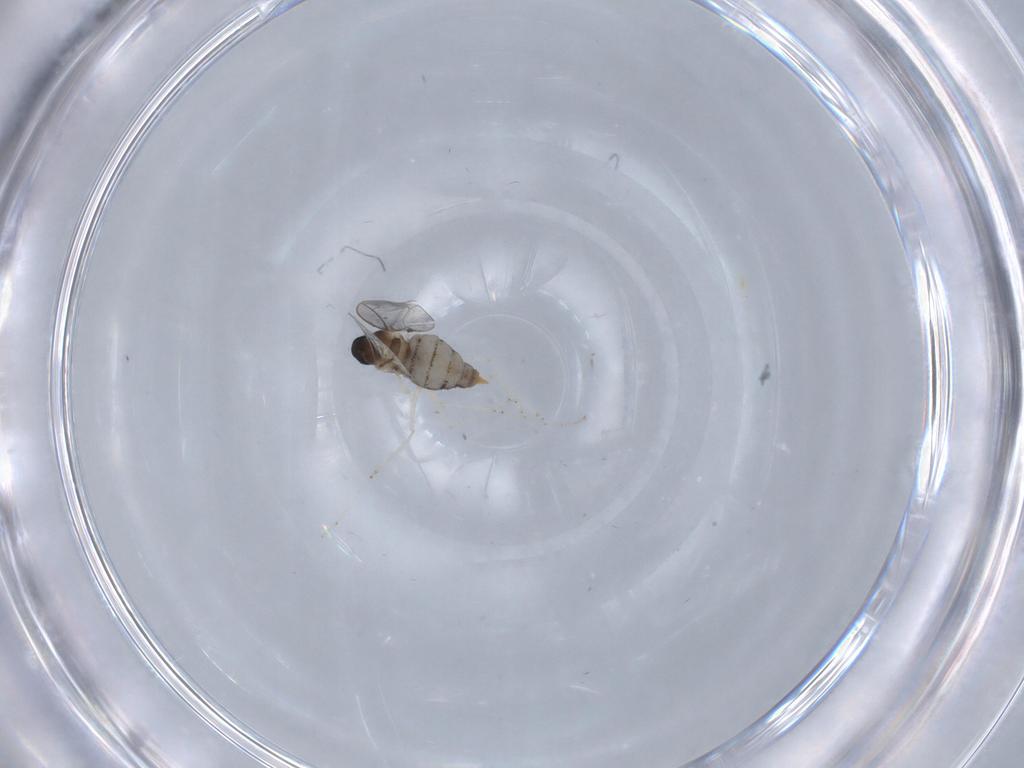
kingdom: Animalia
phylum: Arthropoda
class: Insecta
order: Diptera
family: Cecidomyiidae
